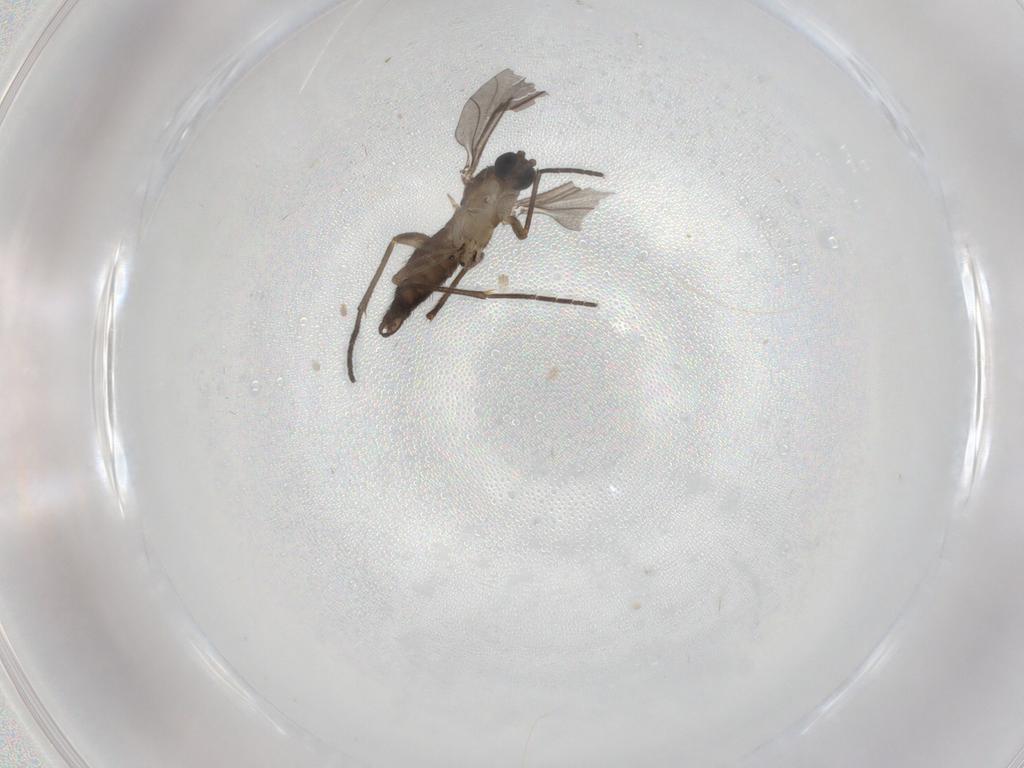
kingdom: Animalia
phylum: Arthropoda
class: Insecta
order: Diptera
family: Sciaridae
